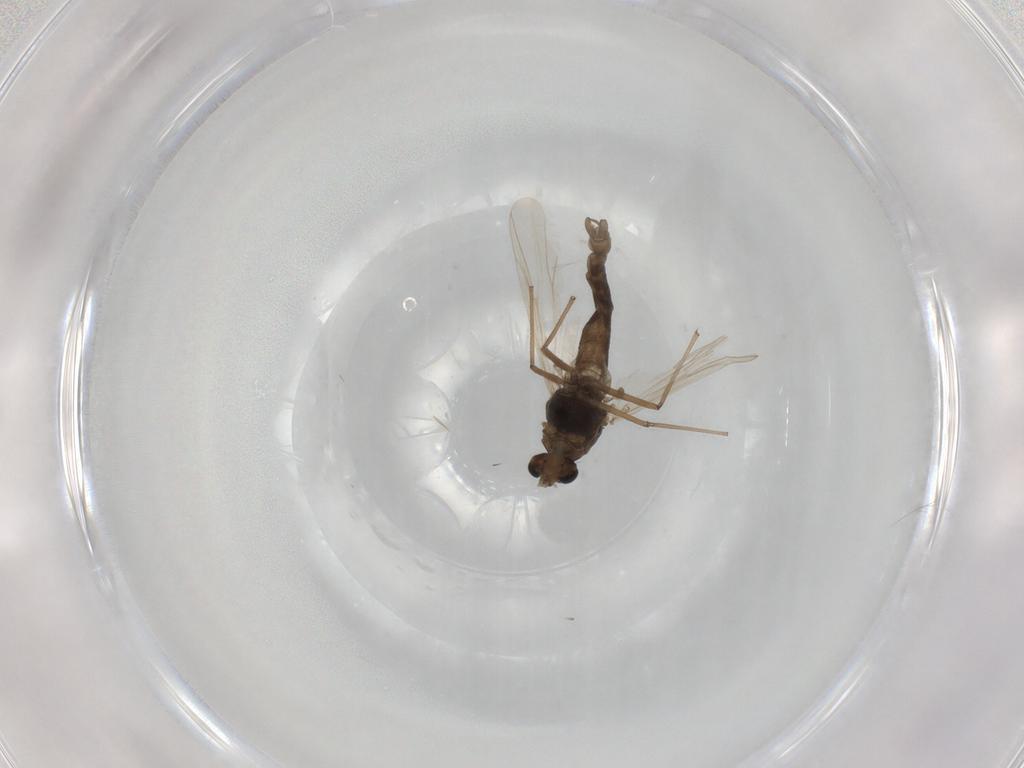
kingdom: Animalia
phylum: Arthropoda
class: Insecta
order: Diptera
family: Chironomidae
